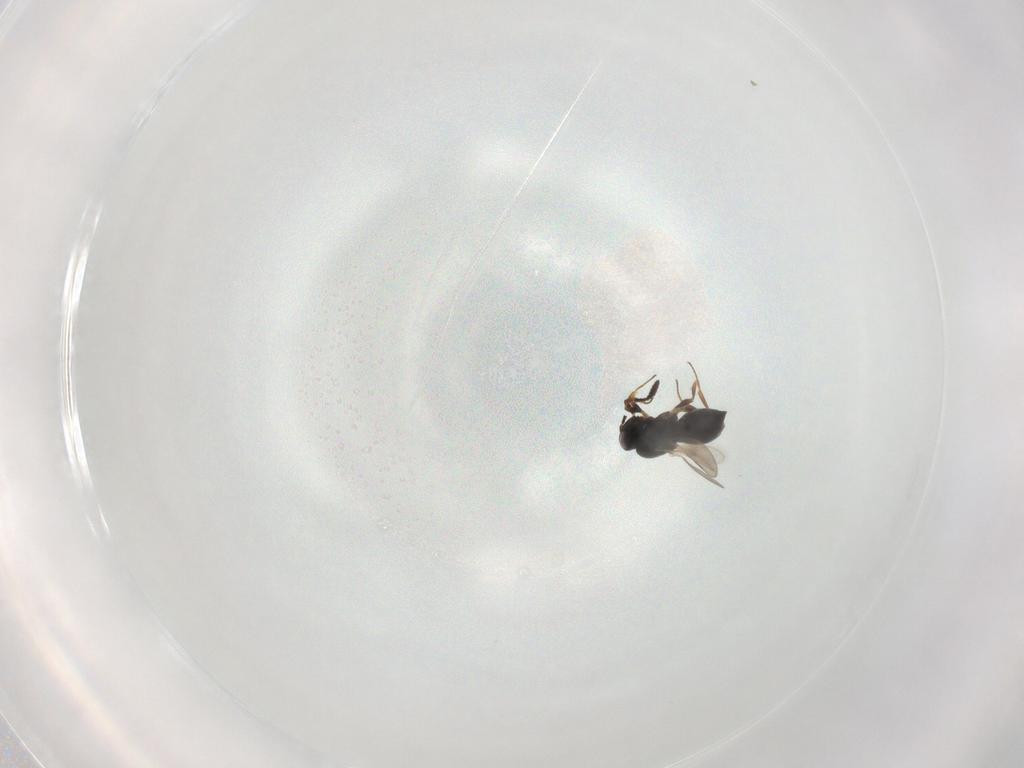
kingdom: Animalia
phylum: Arthropoda
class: Insecta
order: Hymenoptera
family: Scelionidae
